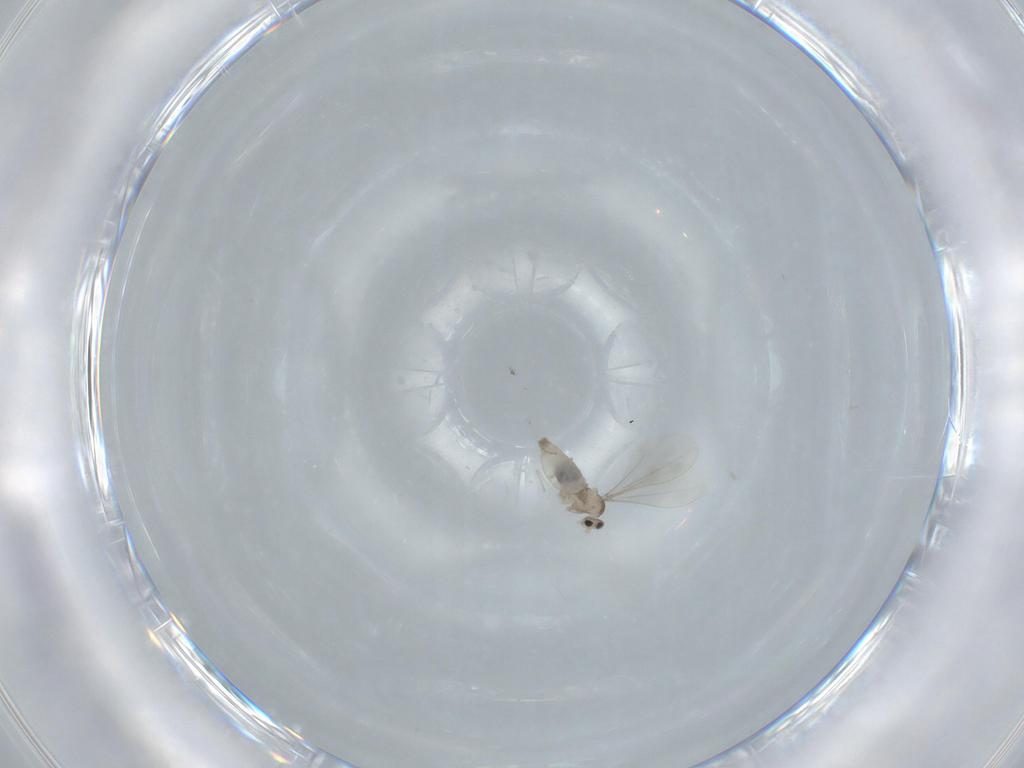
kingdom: Animalia
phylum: Arthropoda
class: Insecta
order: Diptera
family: Cecidomyiidae
